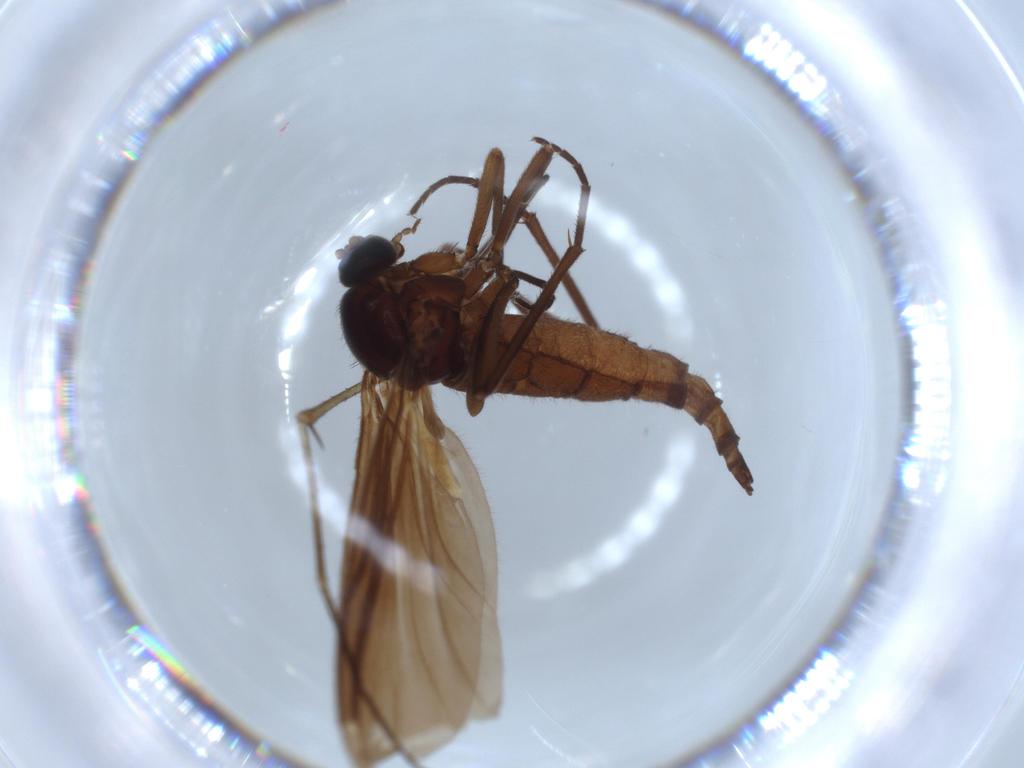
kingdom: Animalia
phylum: Arthropoda
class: Insecta
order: Diptera
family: Ceratopogonidae
